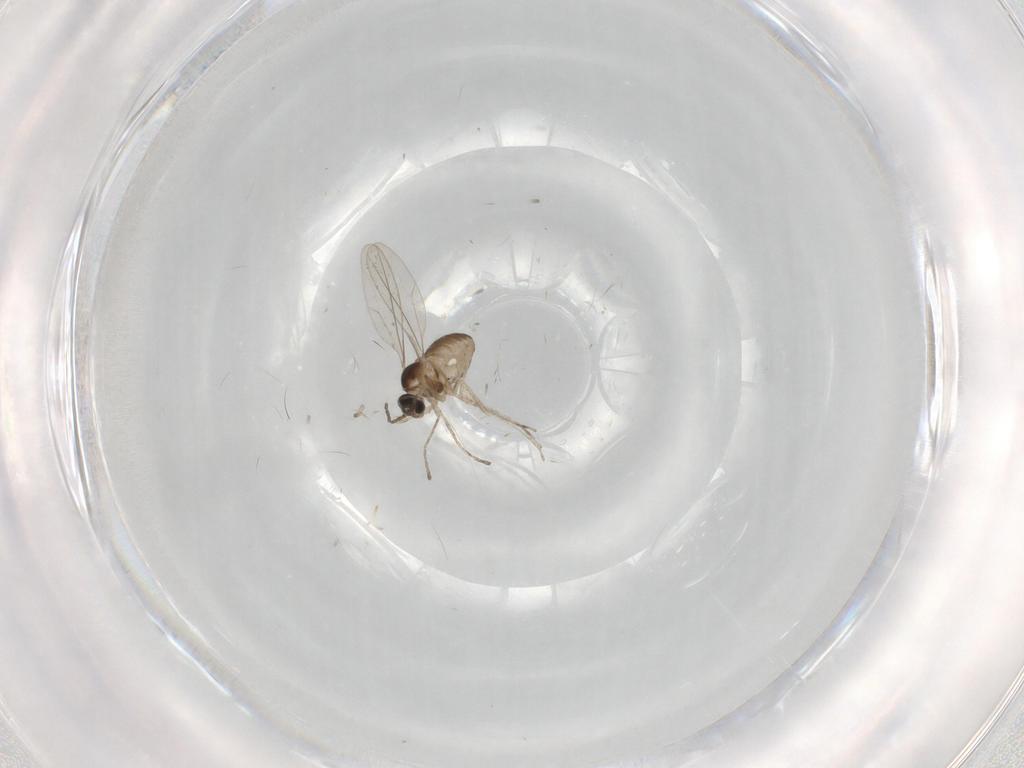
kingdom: Animalia
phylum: Arthropoda
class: Insecta
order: Diptera
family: Cecidomyiidae
